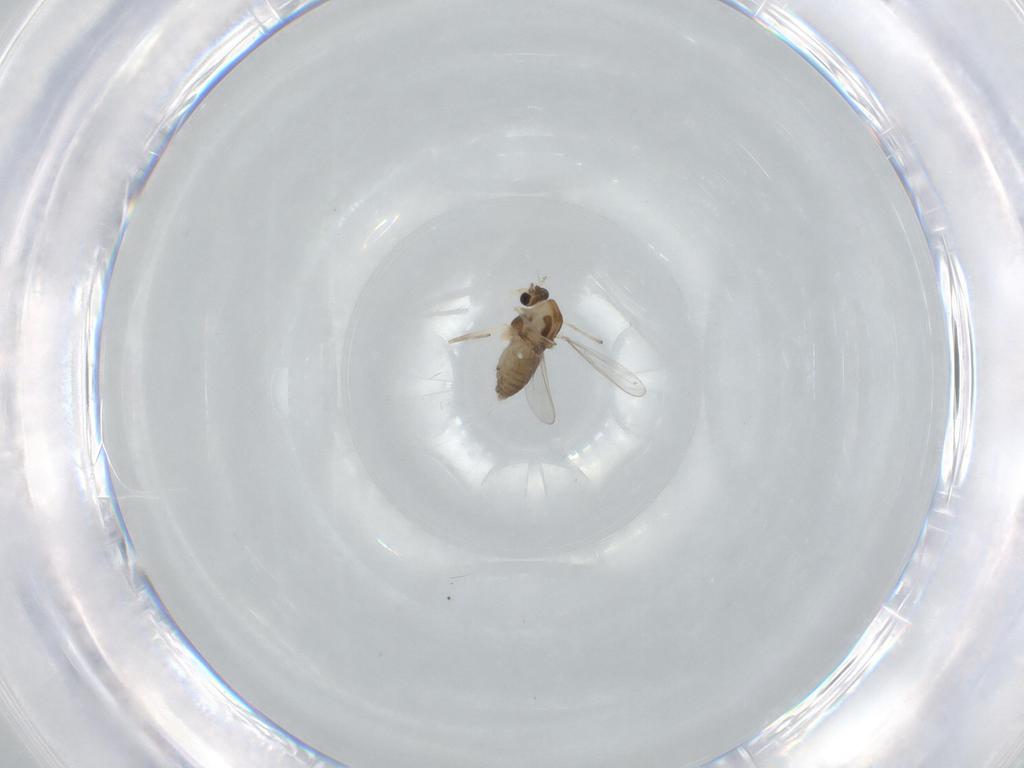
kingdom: Animalia
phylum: Arthropoda
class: Insecta
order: Diptera
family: Chironomidae
